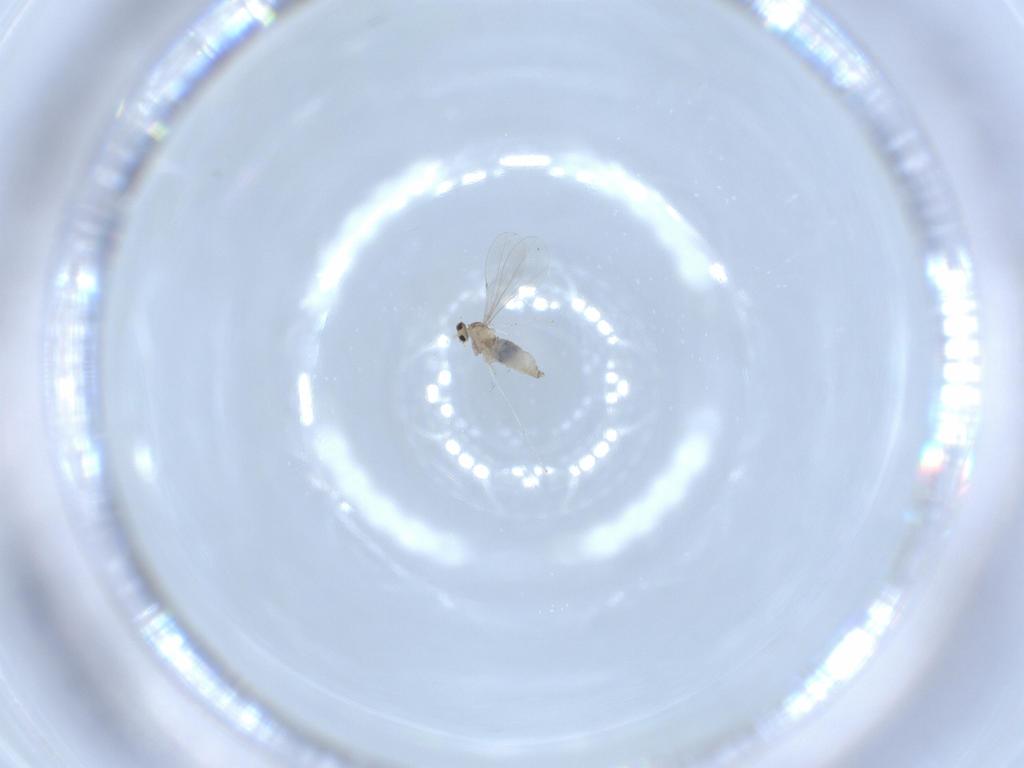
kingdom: Animalia
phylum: Arthropoda
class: Insecta
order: Diptera
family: Cecidomyiidae
